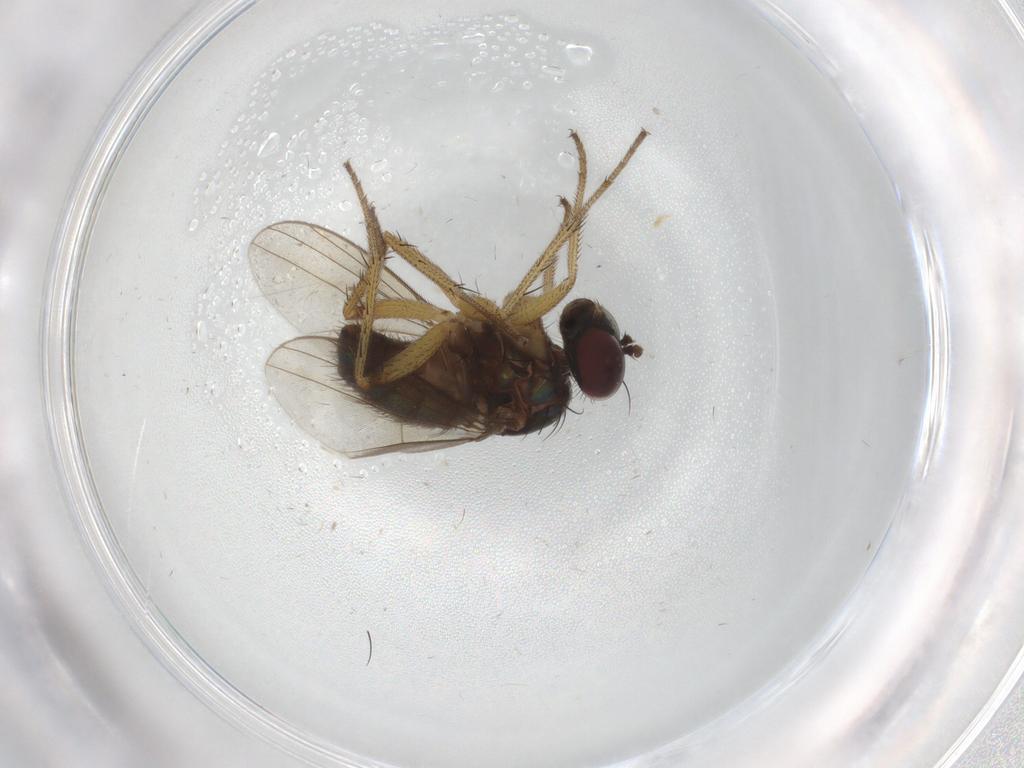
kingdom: Animalia
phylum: Arthropoda
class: Insecta
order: Diptera
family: Dolichopodidae
